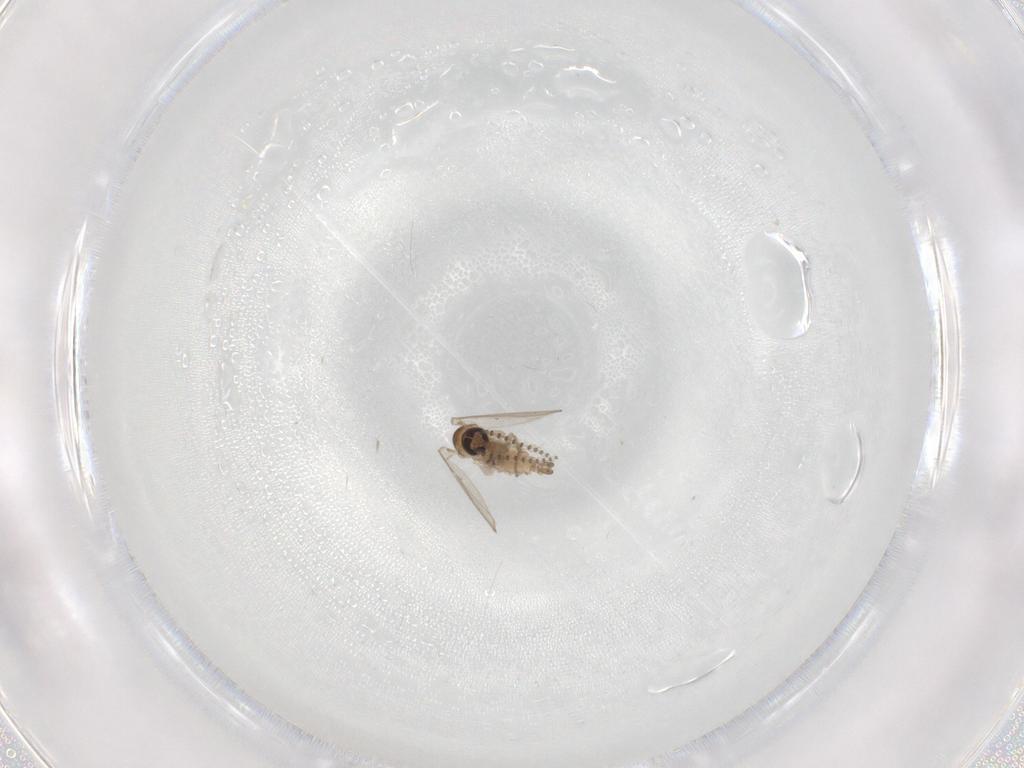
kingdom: Animalia
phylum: Arthropoda
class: Insecta
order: Diptera
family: Psychodidae
